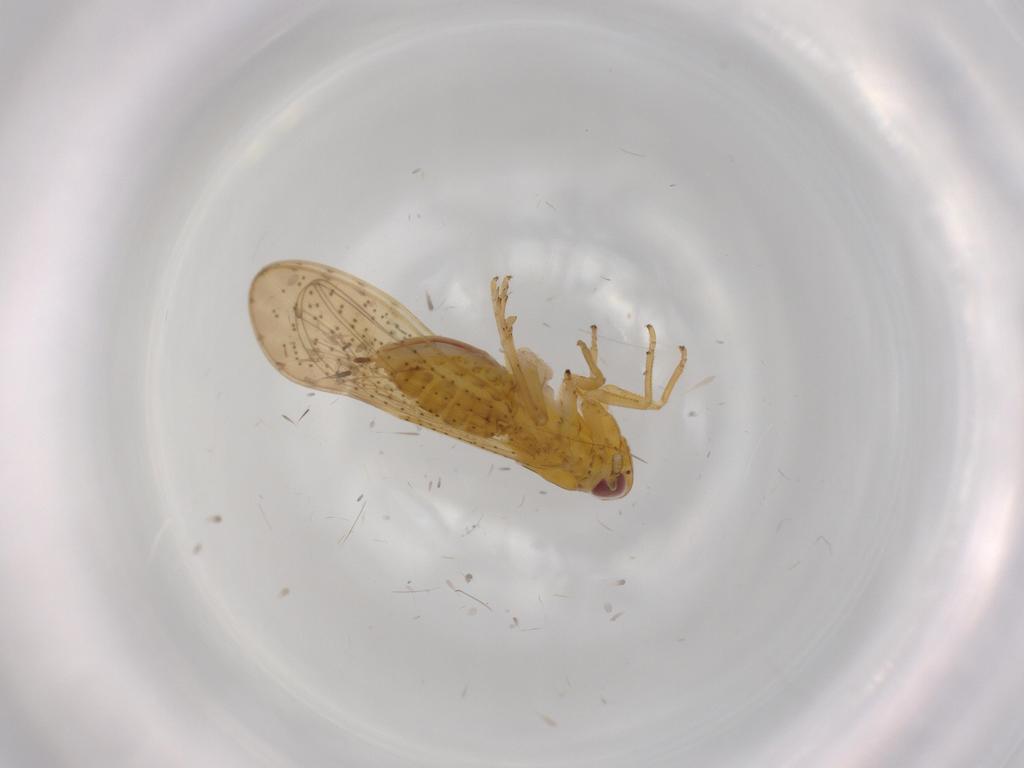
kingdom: Animalia
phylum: Arthropoda
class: Insecta
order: Hemiptera
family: Delphacidae
